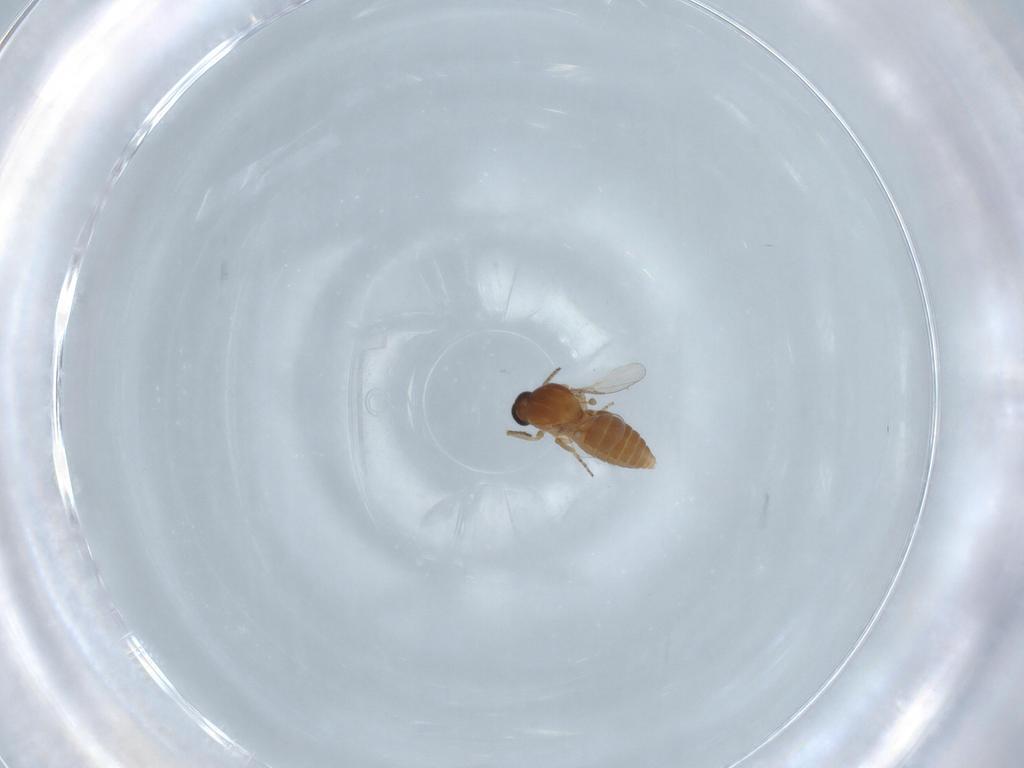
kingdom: Animalia
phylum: Arthropoda
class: Insecta
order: Diptera
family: Ceratopogonidae
